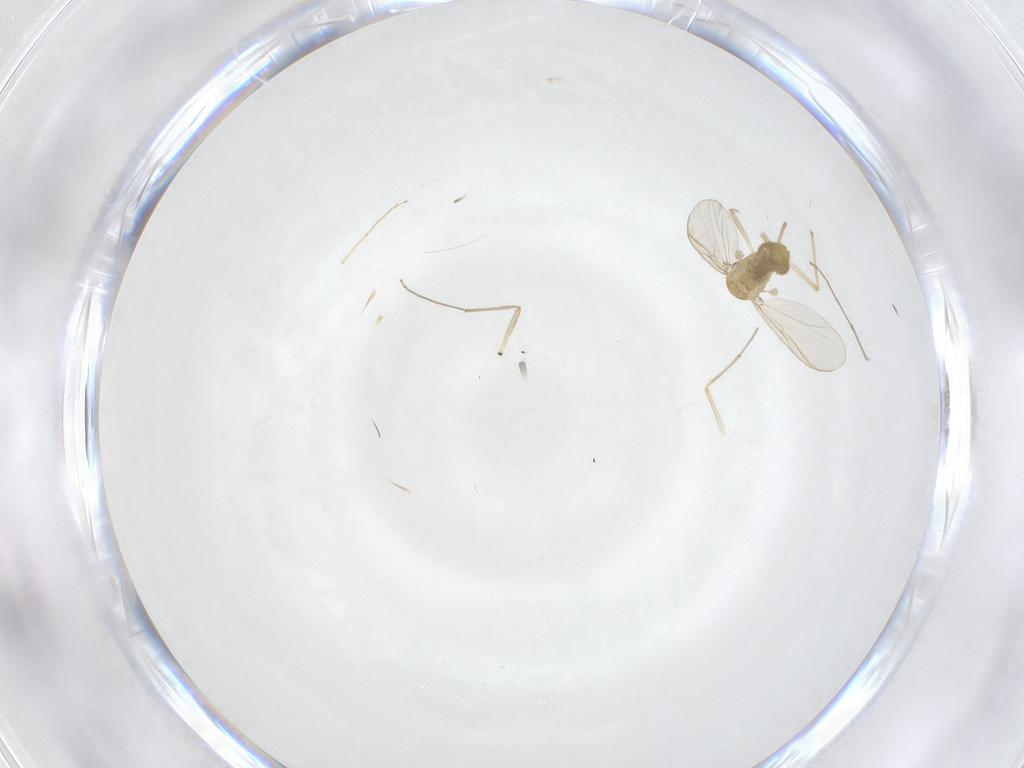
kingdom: Animalia
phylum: Arthropoda
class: Insecta
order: Diptera
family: Chironomidae
